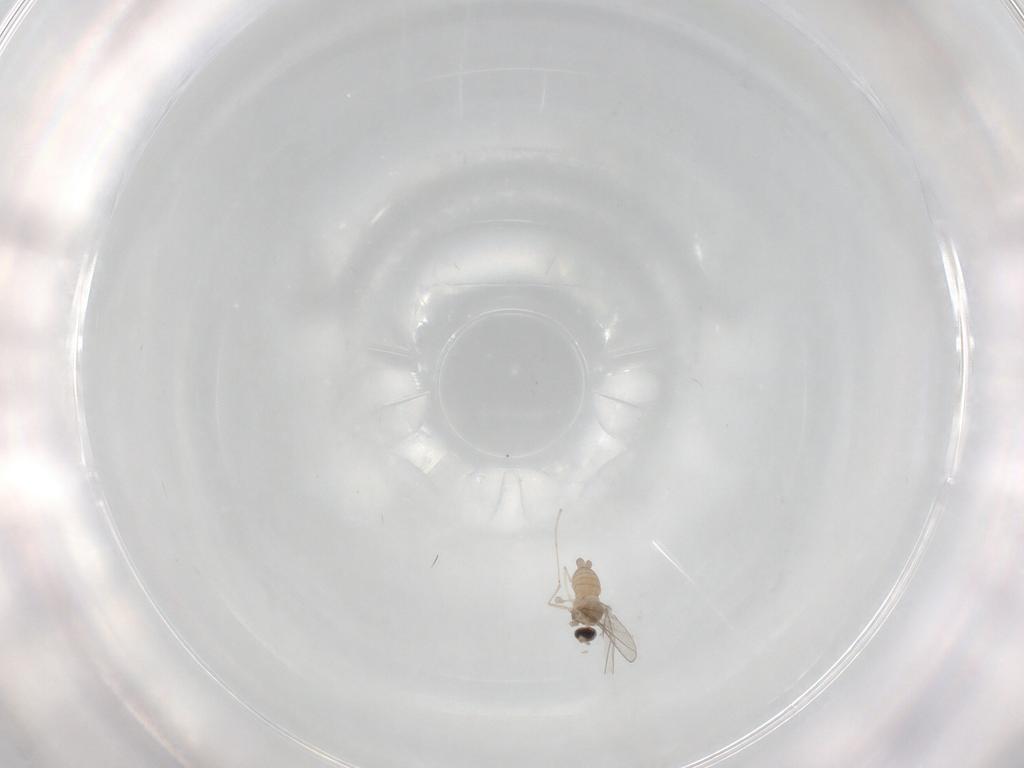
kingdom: Animalia
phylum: Arthropoda
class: Insecta
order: Diptera
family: Cecidomyiidae
